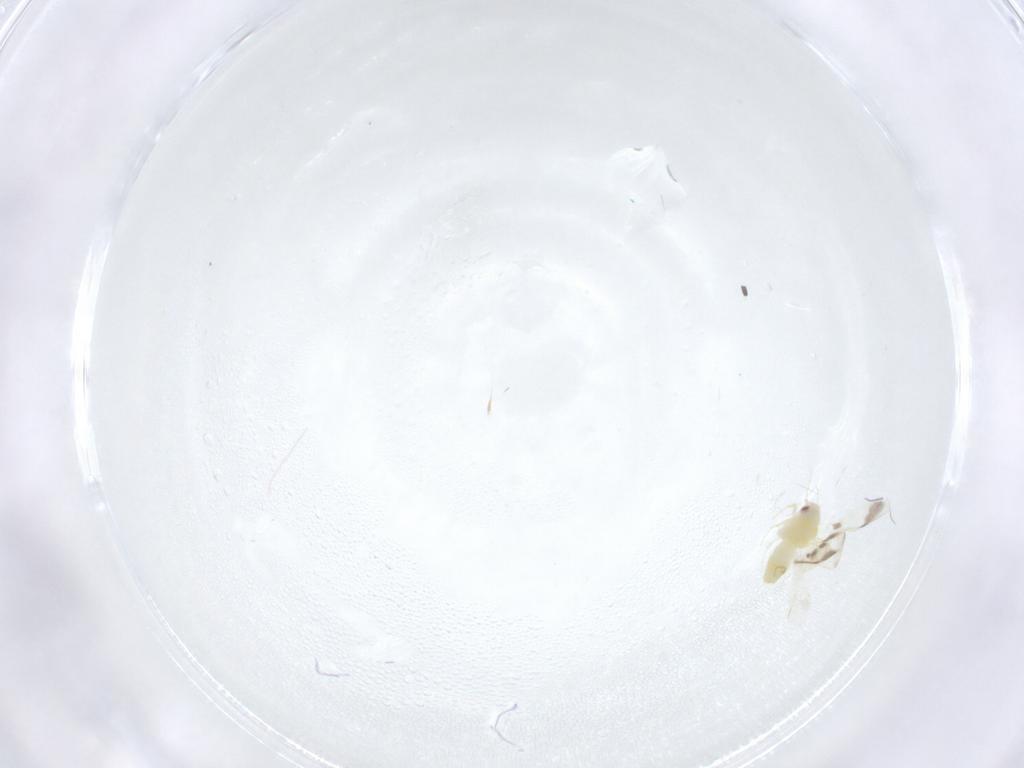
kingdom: Animalia
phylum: Arthropoda
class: Insecta
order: Hemiptera
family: Aleyrodidae
